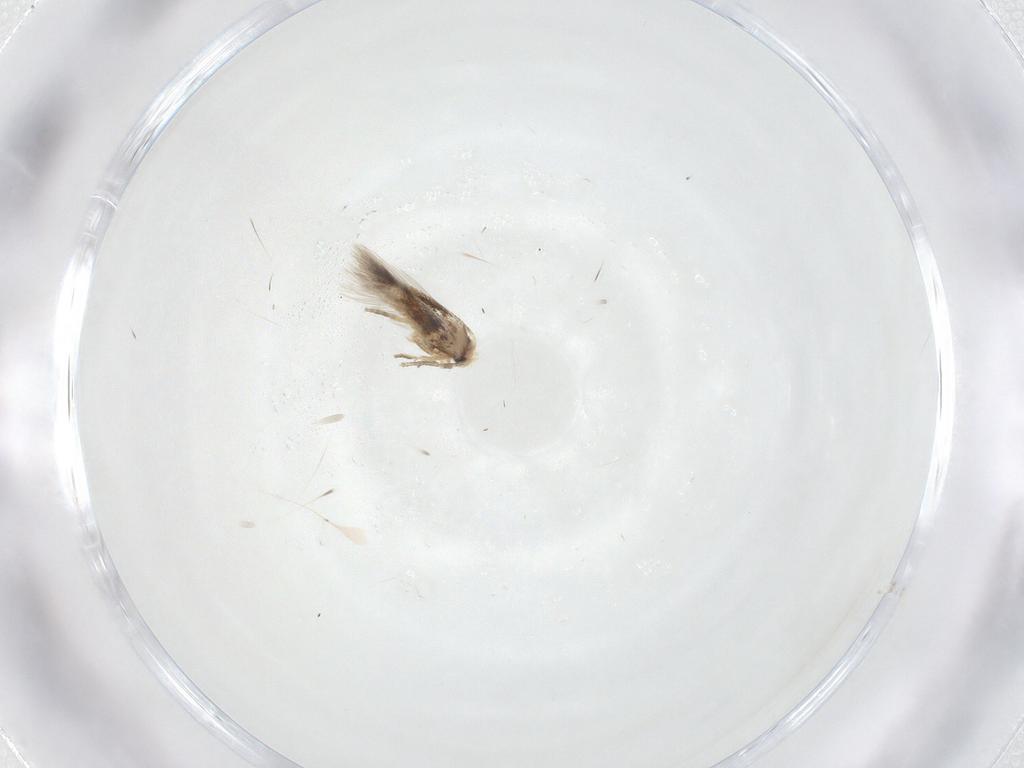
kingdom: Animalia
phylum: Arthropoda
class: Insecta
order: Lepidoptera
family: Nepticulidae
